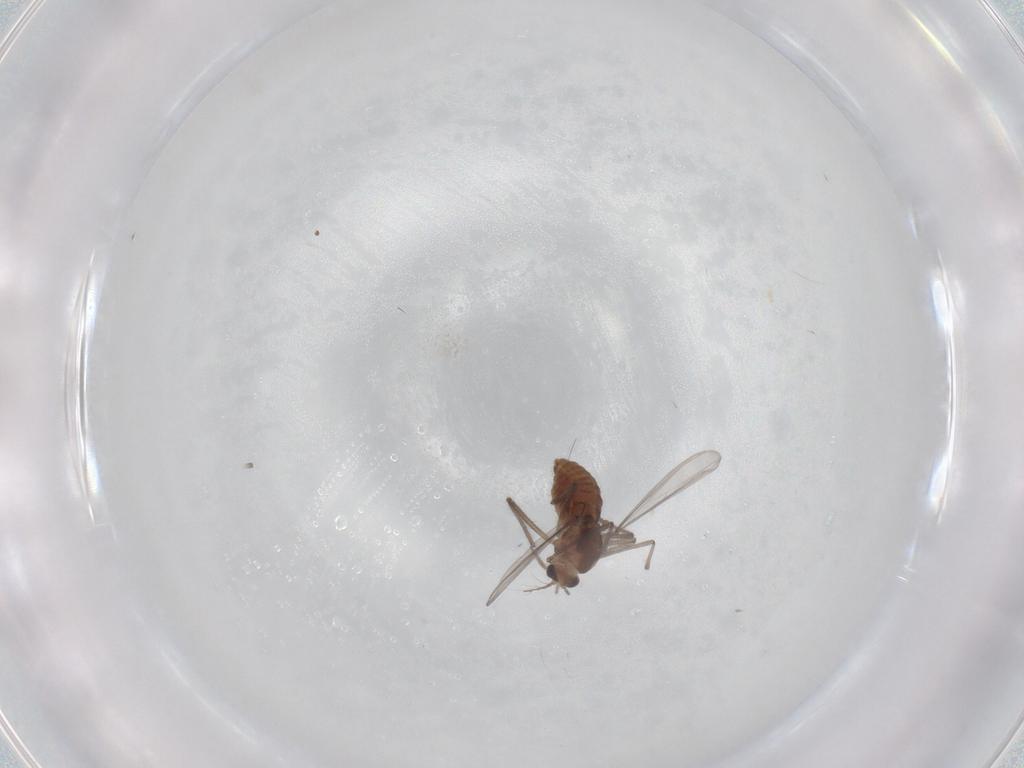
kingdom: Animalia
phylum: Arthropoda
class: Insecta
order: Diptera
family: Chironomidae
